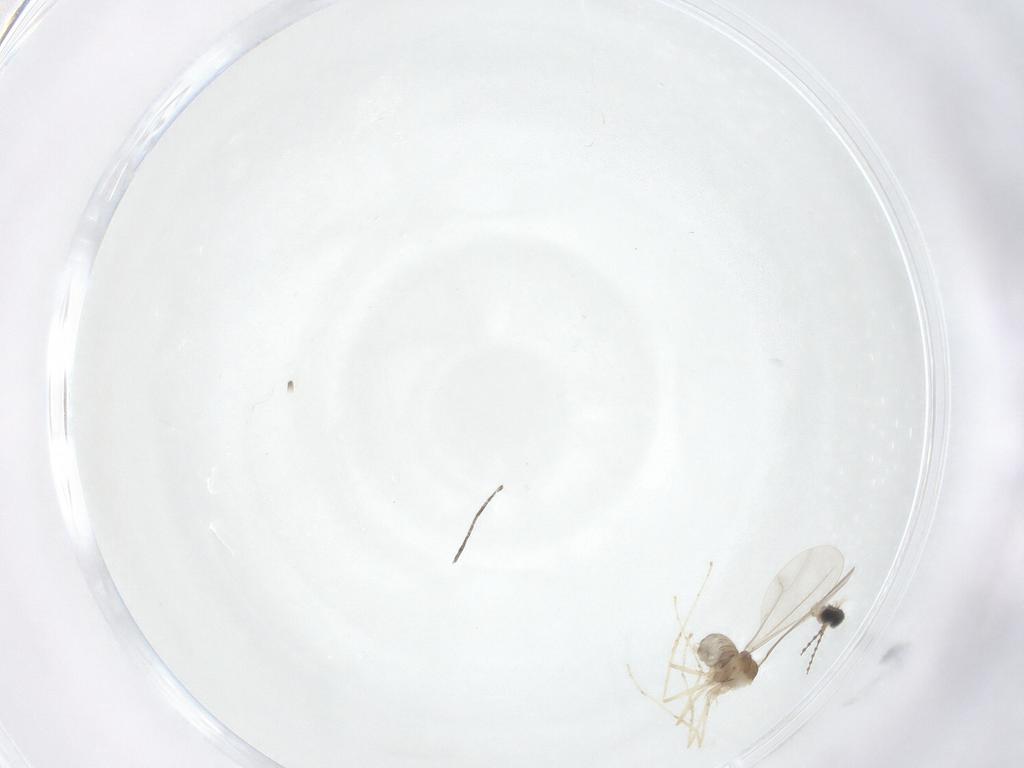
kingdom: Animalia
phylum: Arthropoda
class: Insecta
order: Diptera
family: Cecidomyiidae
